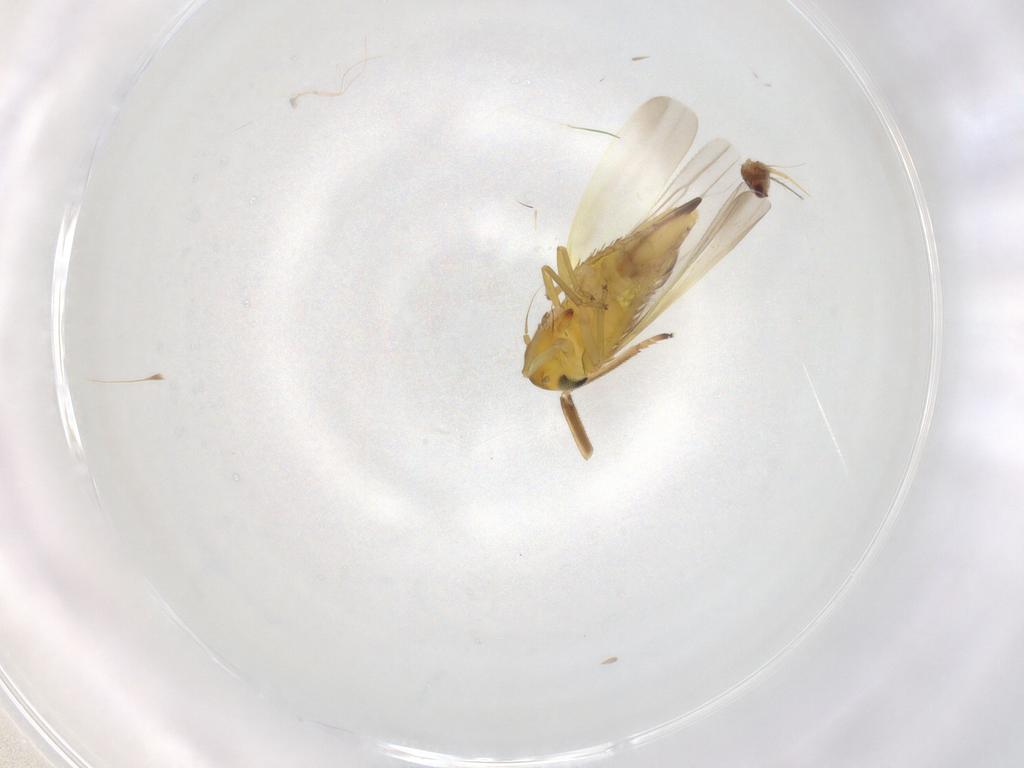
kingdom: Animalia
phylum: Arthropoda
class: Insecta
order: Hemiptera
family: Cicadellidae
